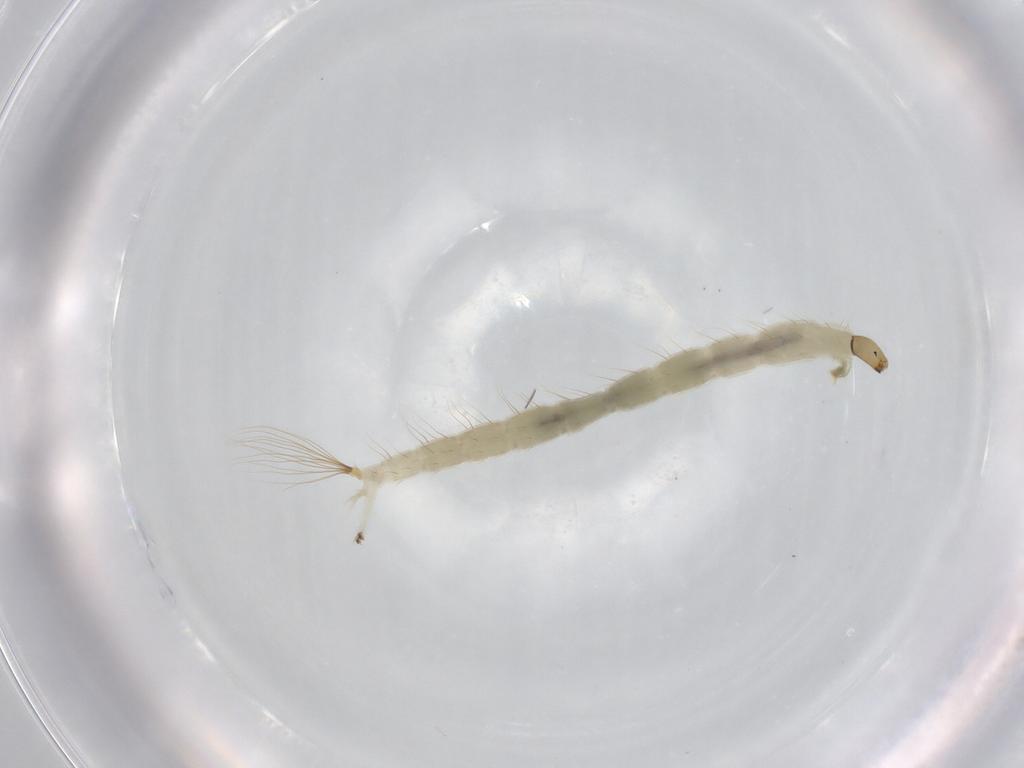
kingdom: Animalia
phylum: Arthropoda
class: Insecta
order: Diptera
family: Chironomidae
